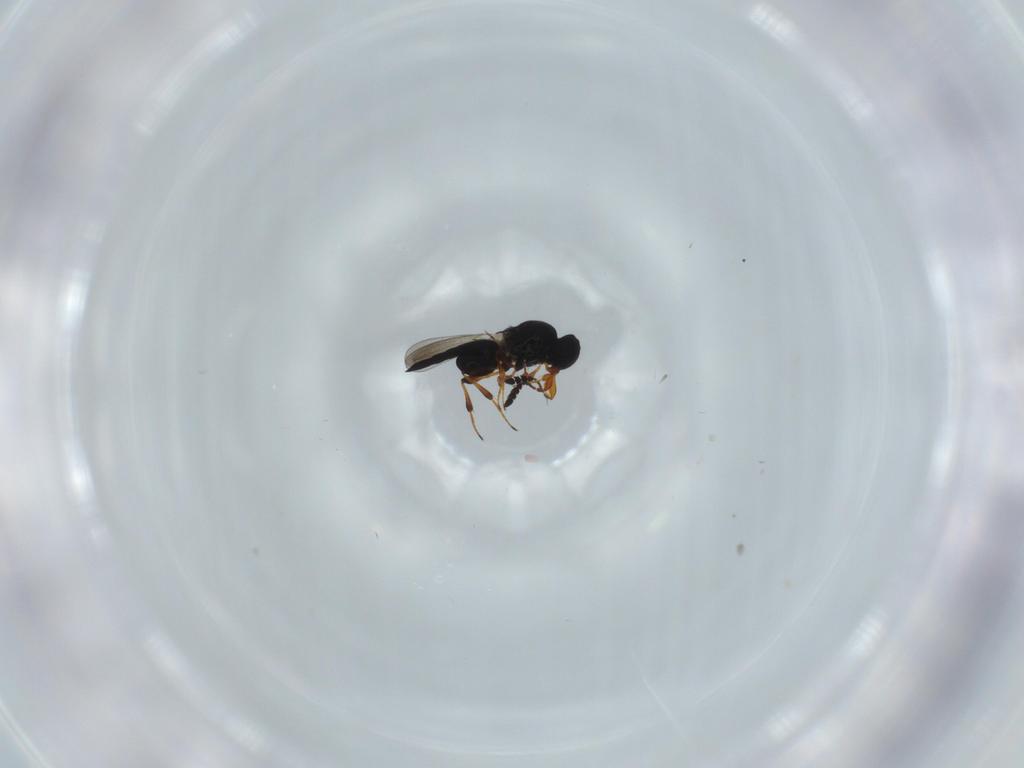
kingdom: Animalia
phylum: Arthropoda
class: Insecta
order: Hymenoptera
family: Platygastridae
